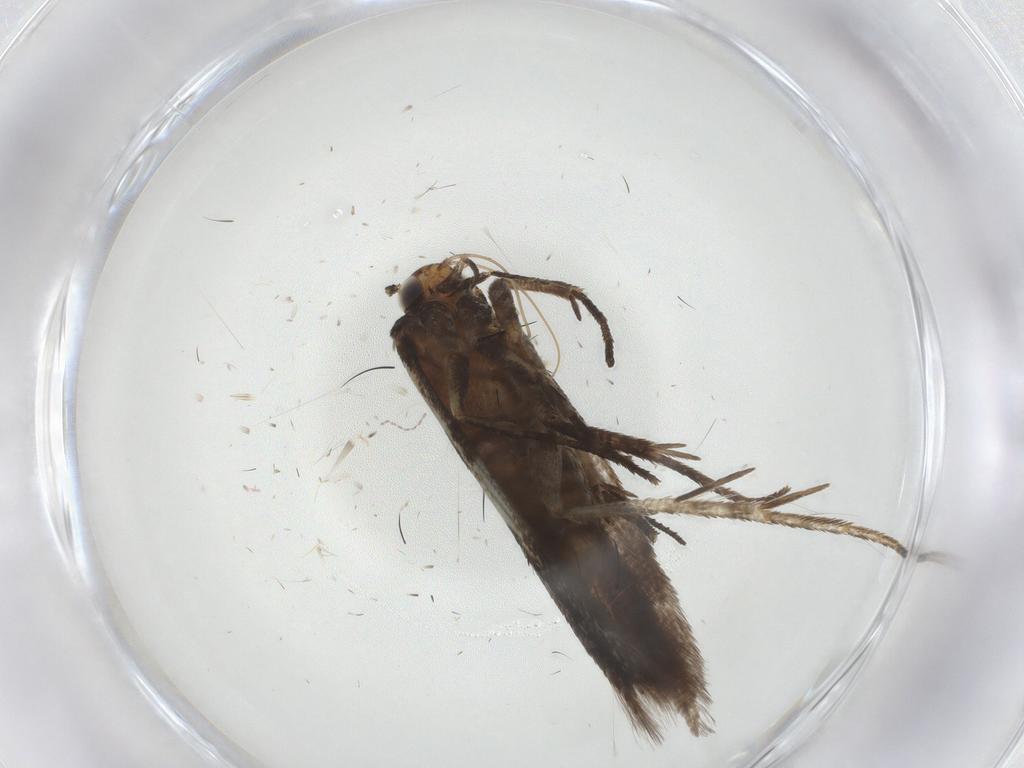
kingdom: Animalia
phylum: Arthropoda
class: Insecta
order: Lepidoptera
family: Gelechiidae
